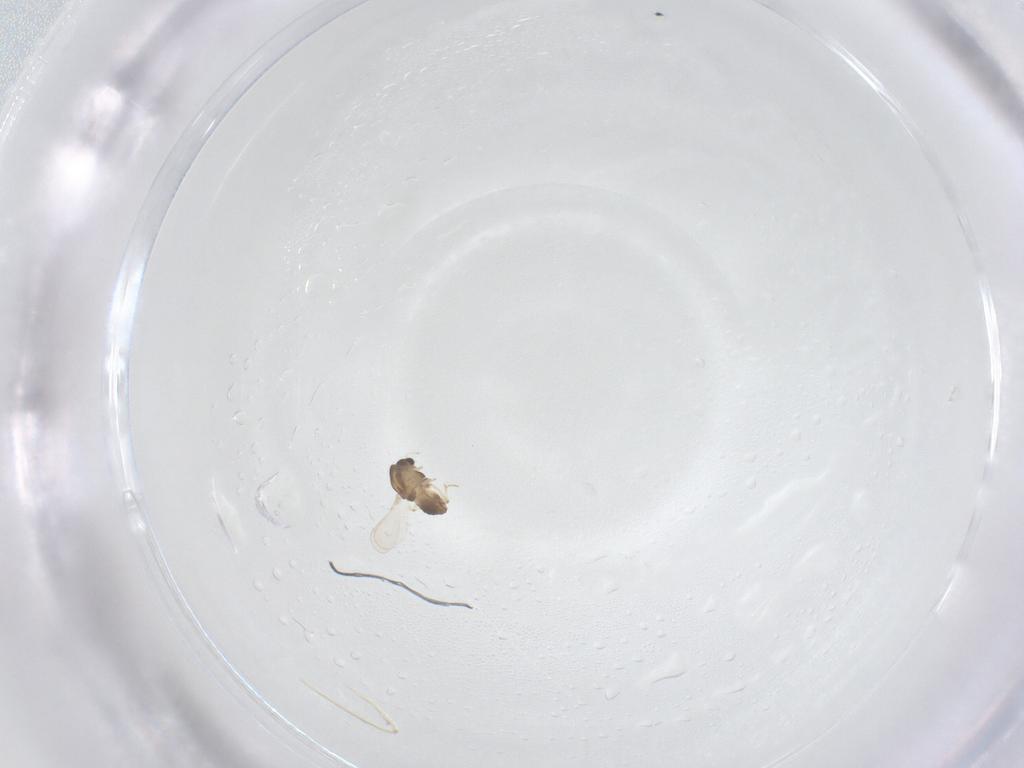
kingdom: Animalia
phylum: Arthropoda
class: Insecta
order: Diptera
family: Chironomidae
